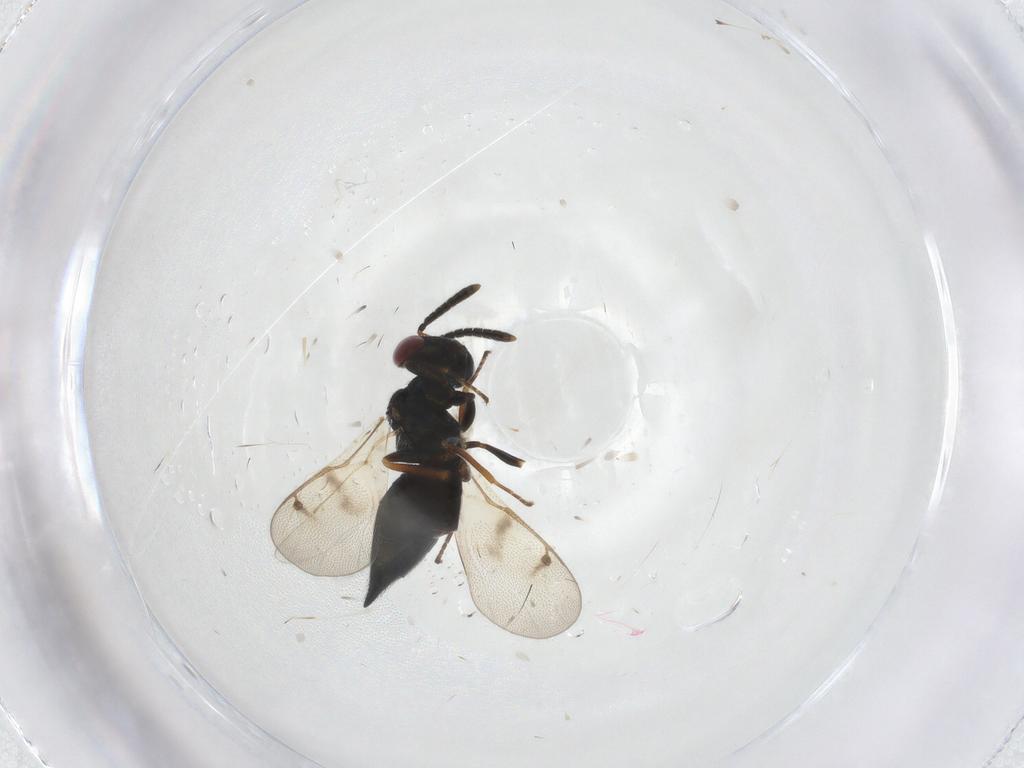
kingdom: Animalia
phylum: Arthropoda
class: Insecta
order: Hymenoptera
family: Pteromalidae
